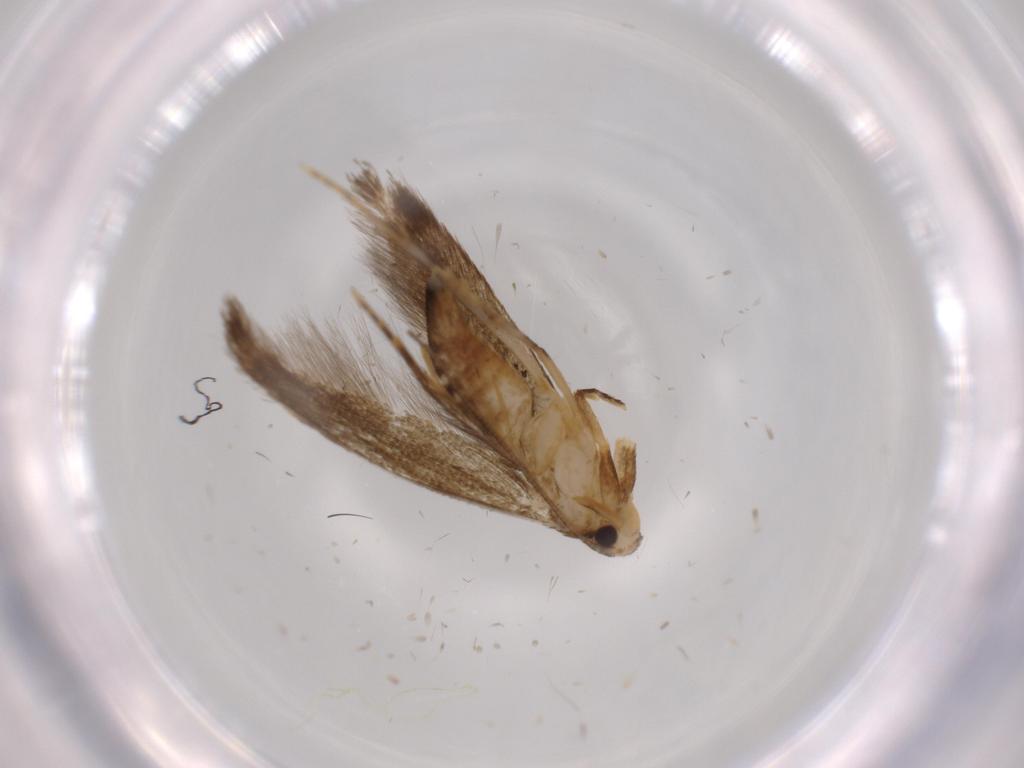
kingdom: Animalia
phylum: Arthropoda
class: Insecta
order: Lepidoptera
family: Tineidae
